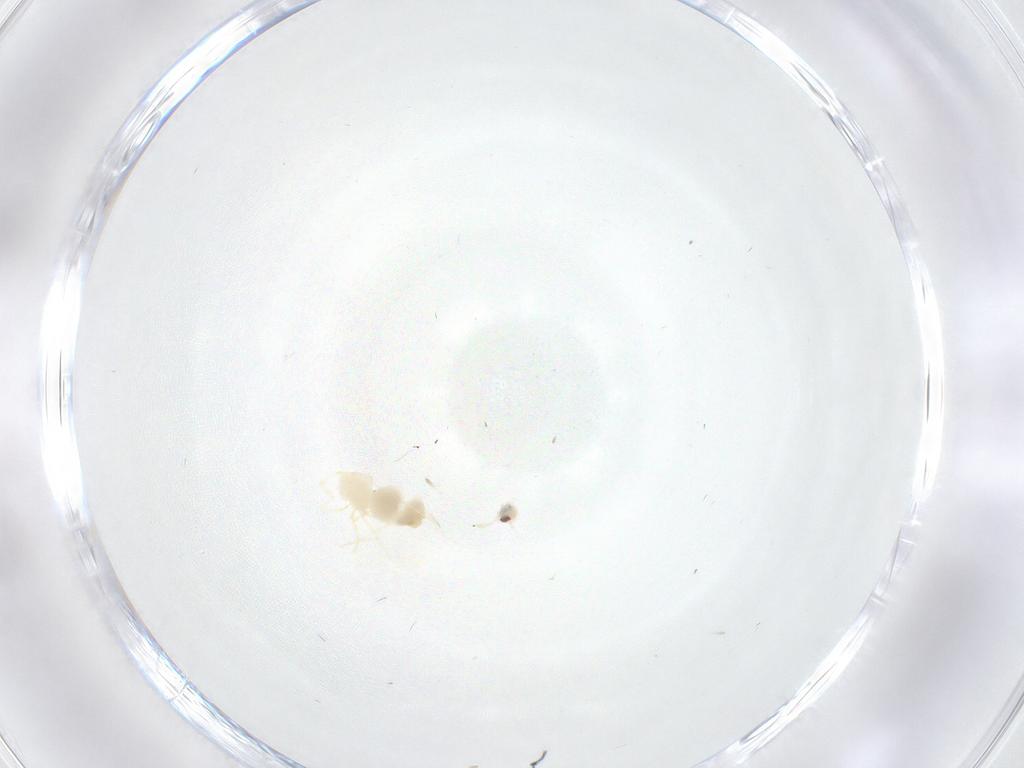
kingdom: Animalia
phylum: Arthropoda
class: Insecta
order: Hemiptera
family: Aleyrodidae
